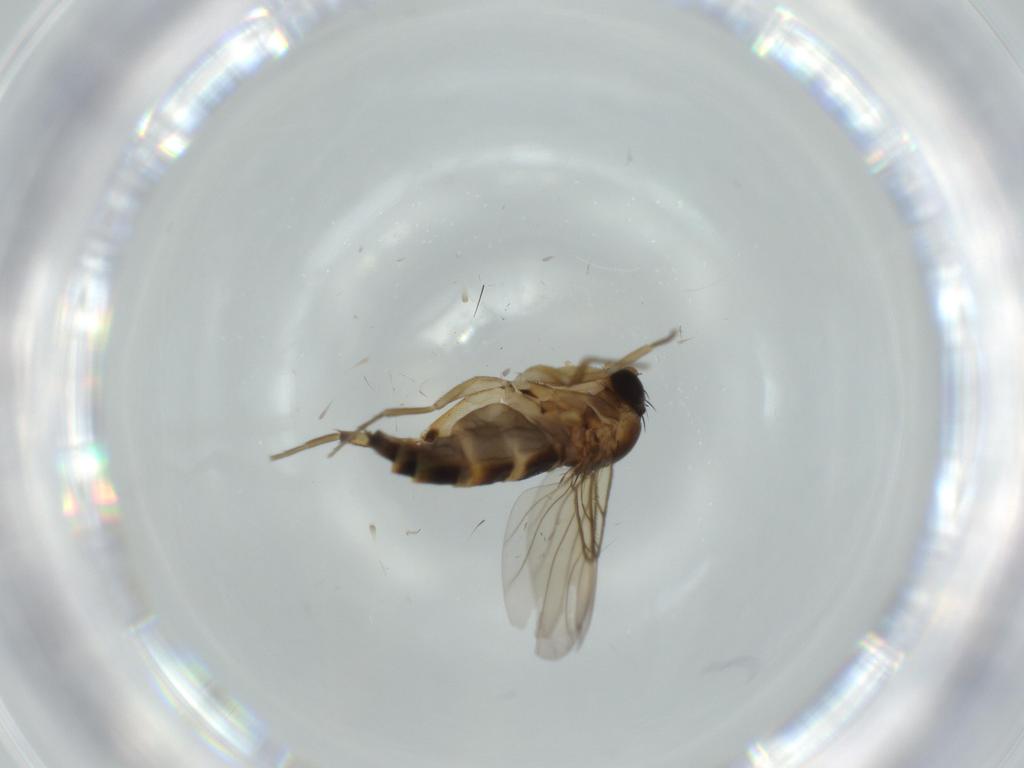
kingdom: Animalia
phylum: Arthropoda
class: Insecta
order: Diptera
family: Phoridae
